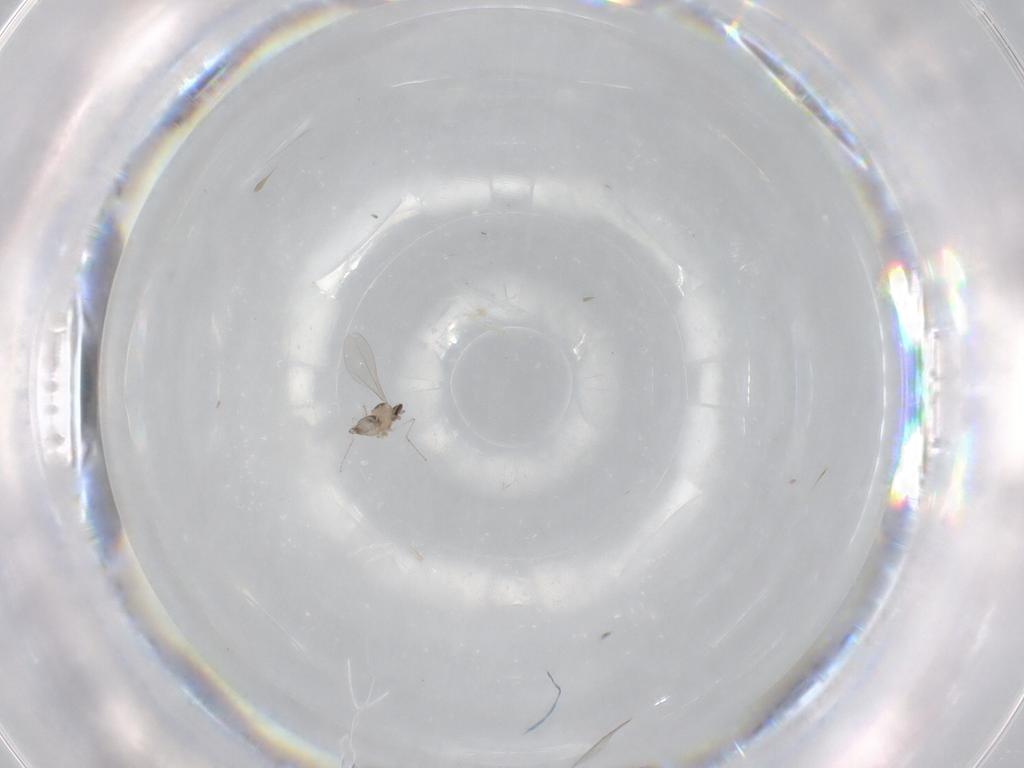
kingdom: Animalia
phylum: Arthropoda
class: Insecta
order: Diptera
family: Cecidomyiidae
